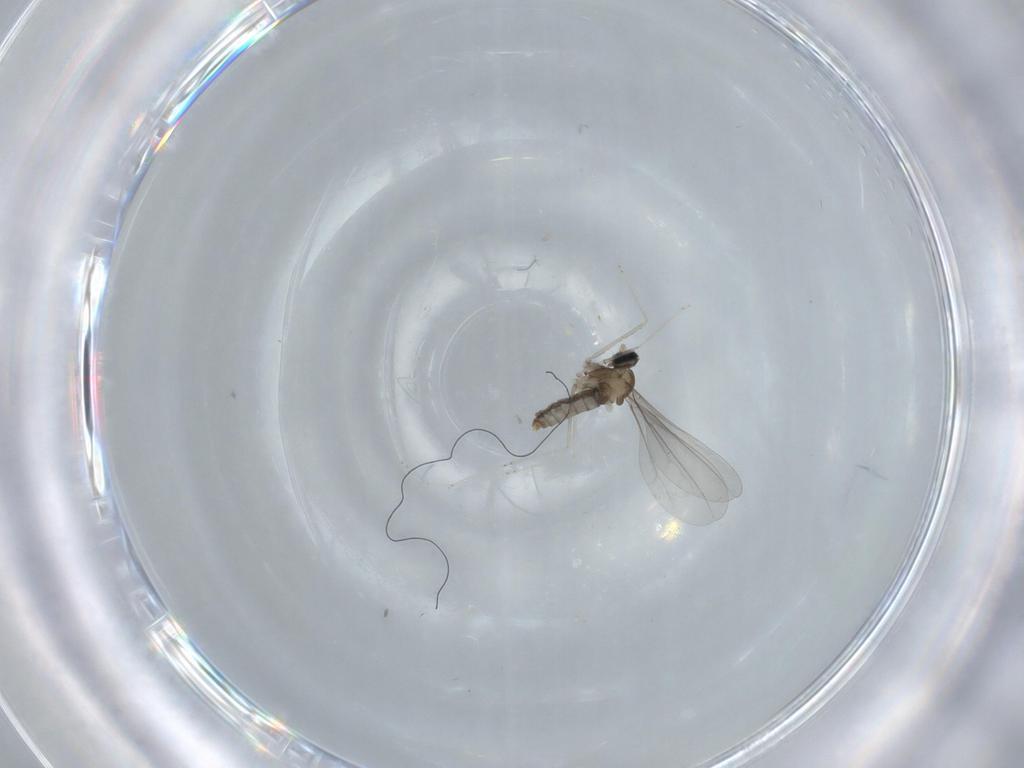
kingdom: Animalia
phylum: Arthropoda
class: Insecta
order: Diptera
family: Cecidomyiidae
